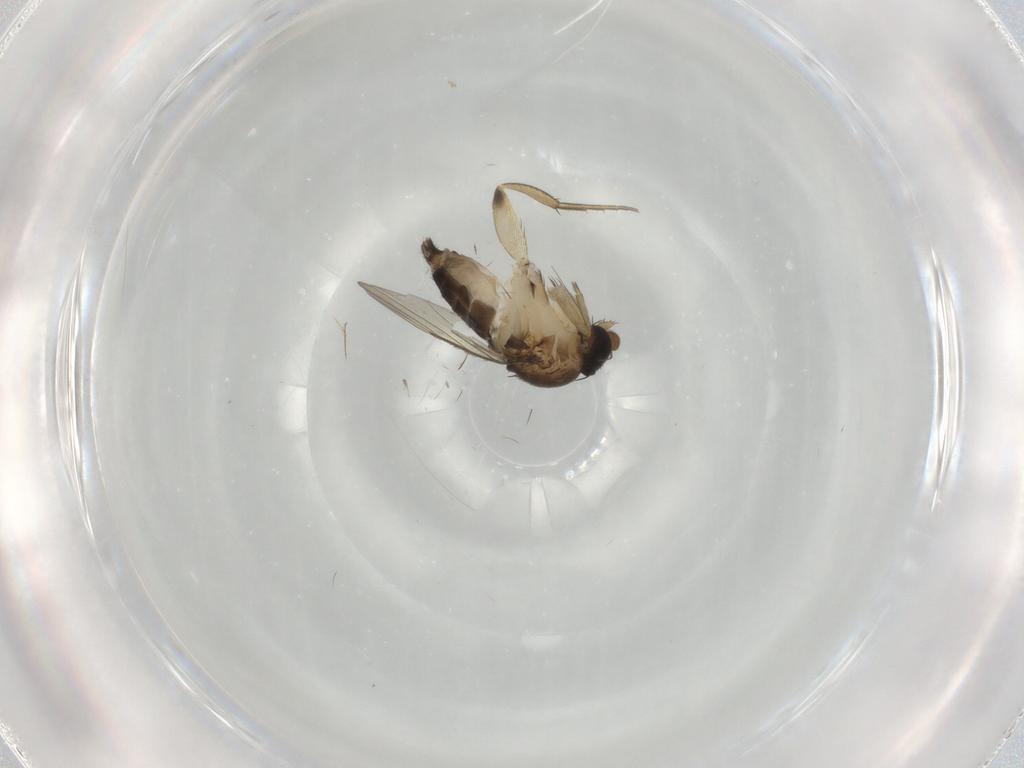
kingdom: Animalia
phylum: Arthropoda
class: Insecta
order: Diptera
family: Phoridae
